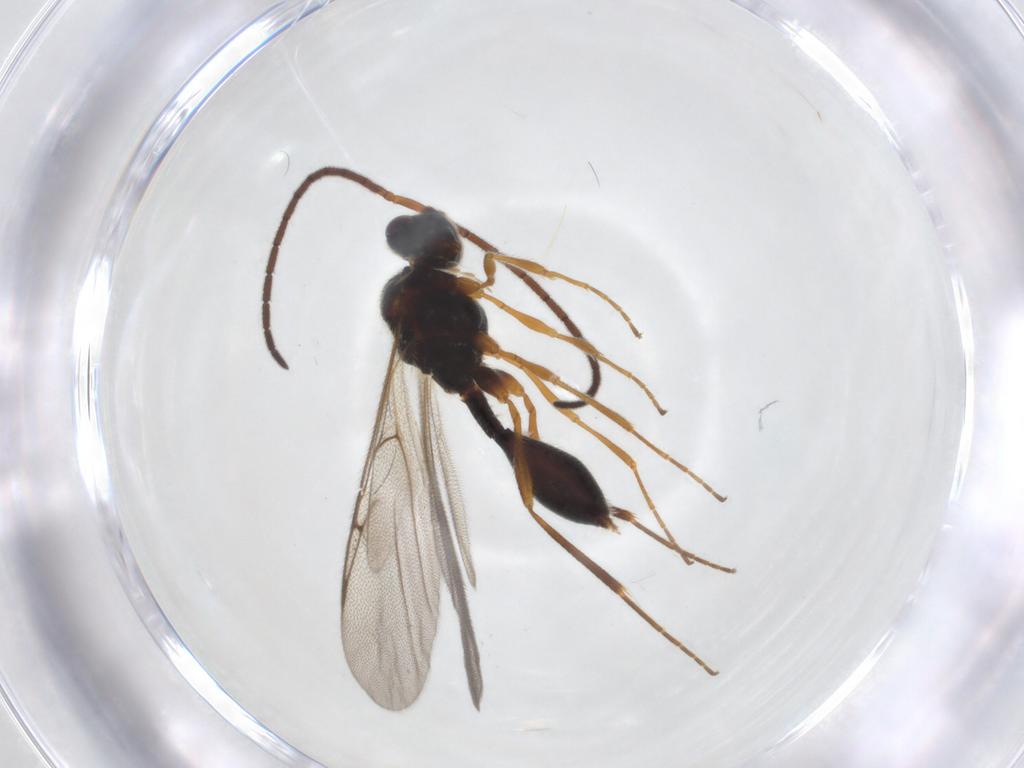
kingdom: Animalia
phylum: Arthropoda
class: Insecta
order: Hymenoptera
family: Diapriidae
